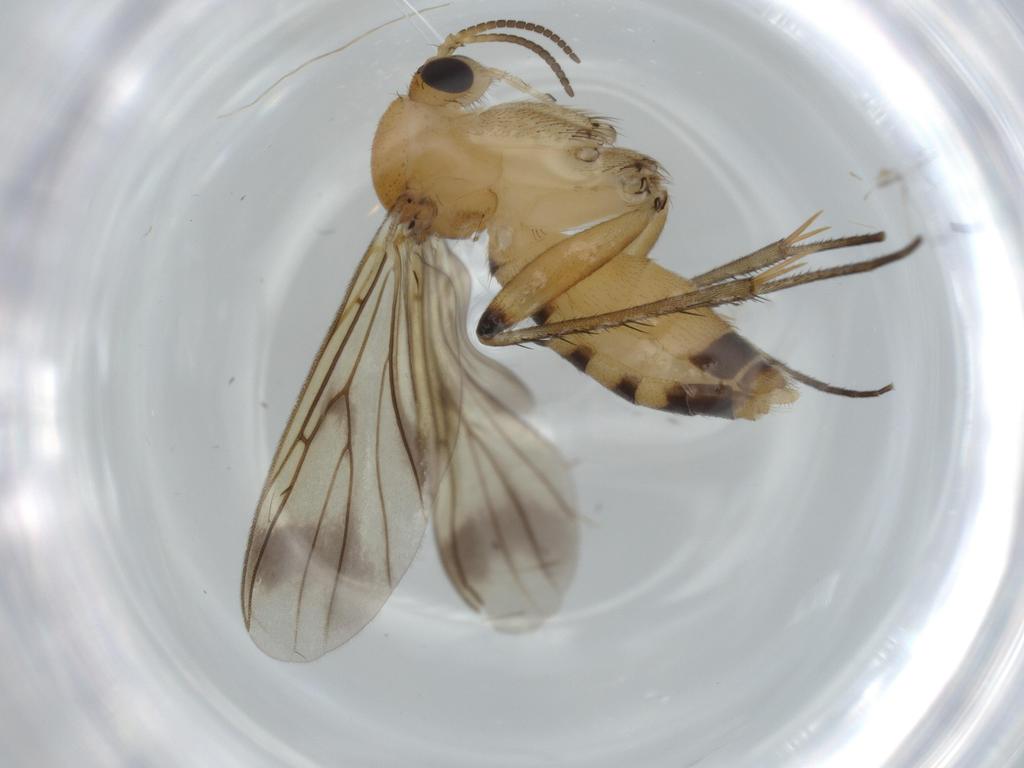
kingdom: Animalia
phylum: Arthropoda
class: Insecta
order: Diptera
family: Mycetophilidae
